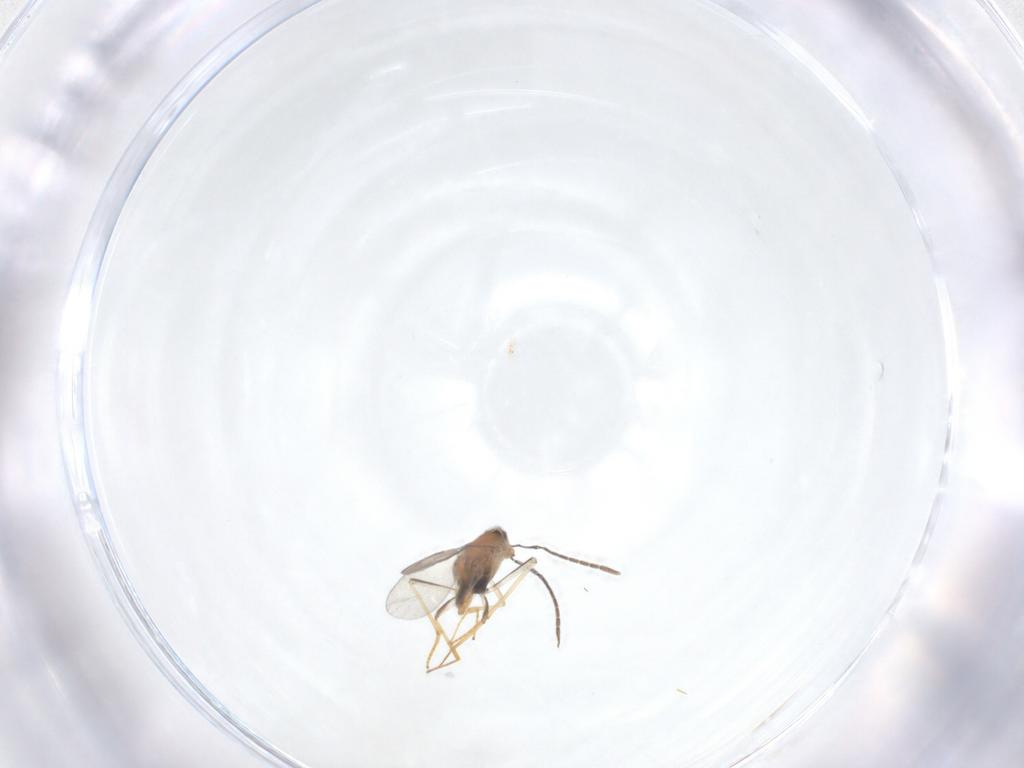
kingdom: Animalia
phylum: Arthropoda
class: Insecta
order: Hymenoptera
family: Encyrtidae
